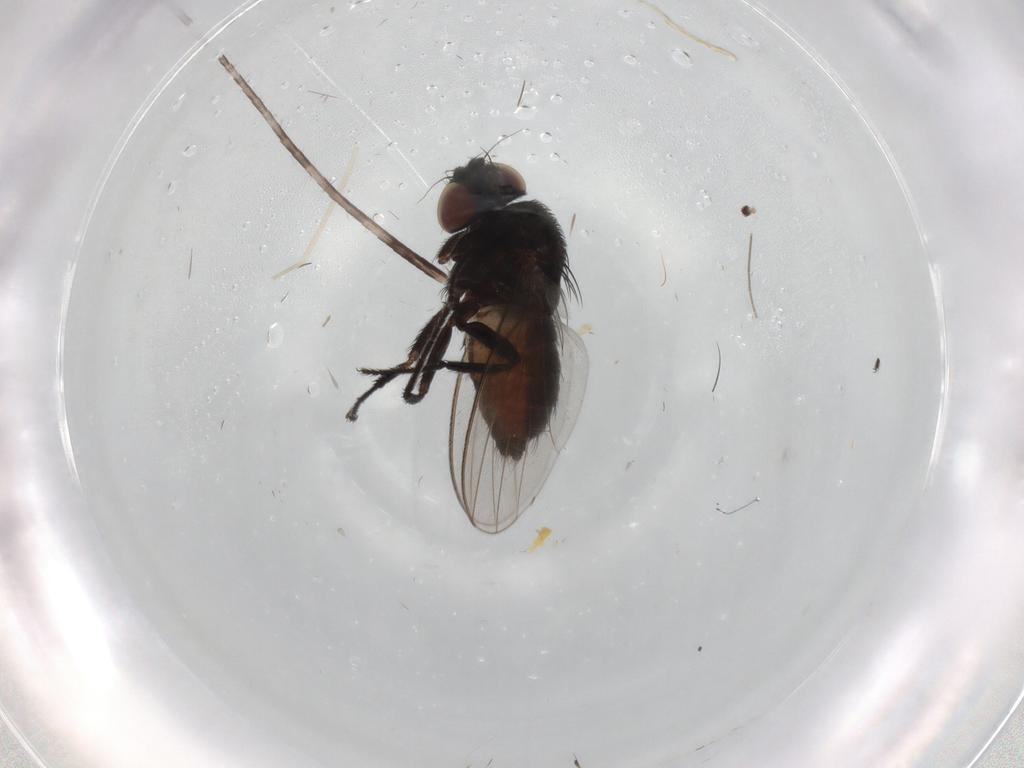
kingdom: Animalia
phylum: Arthropoda
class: Insecta
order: Diptera
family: Milichiidae
